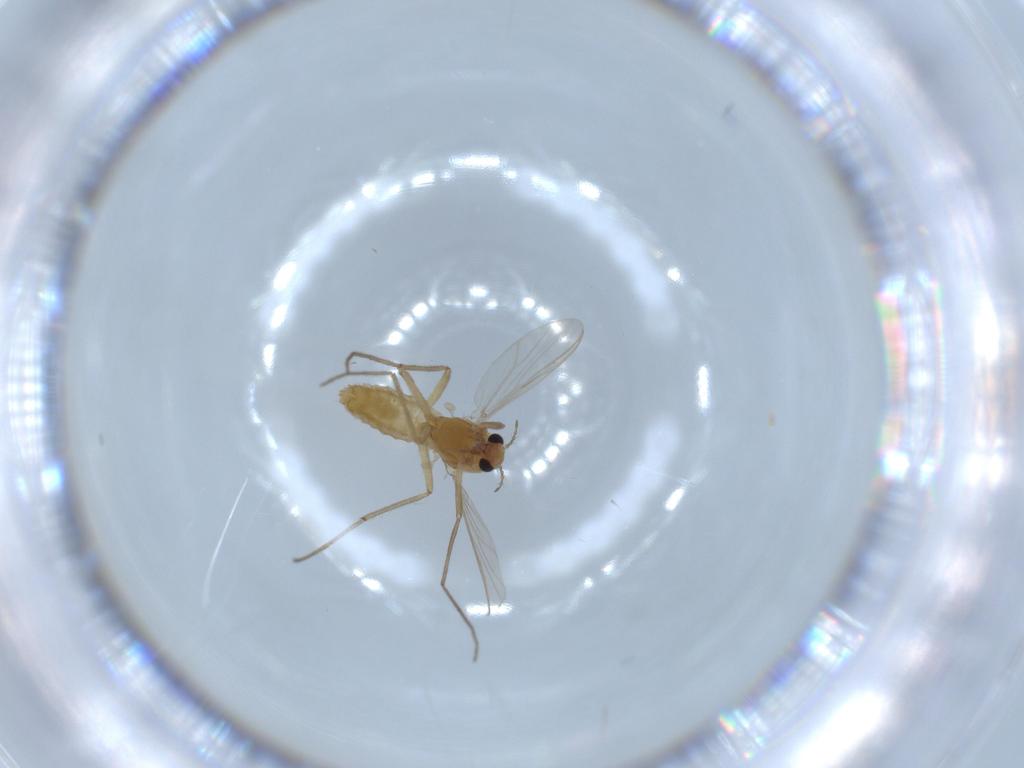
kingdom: Animalia
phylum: Arthropoda
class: Insecta
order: Diptera
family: Chironomidae
